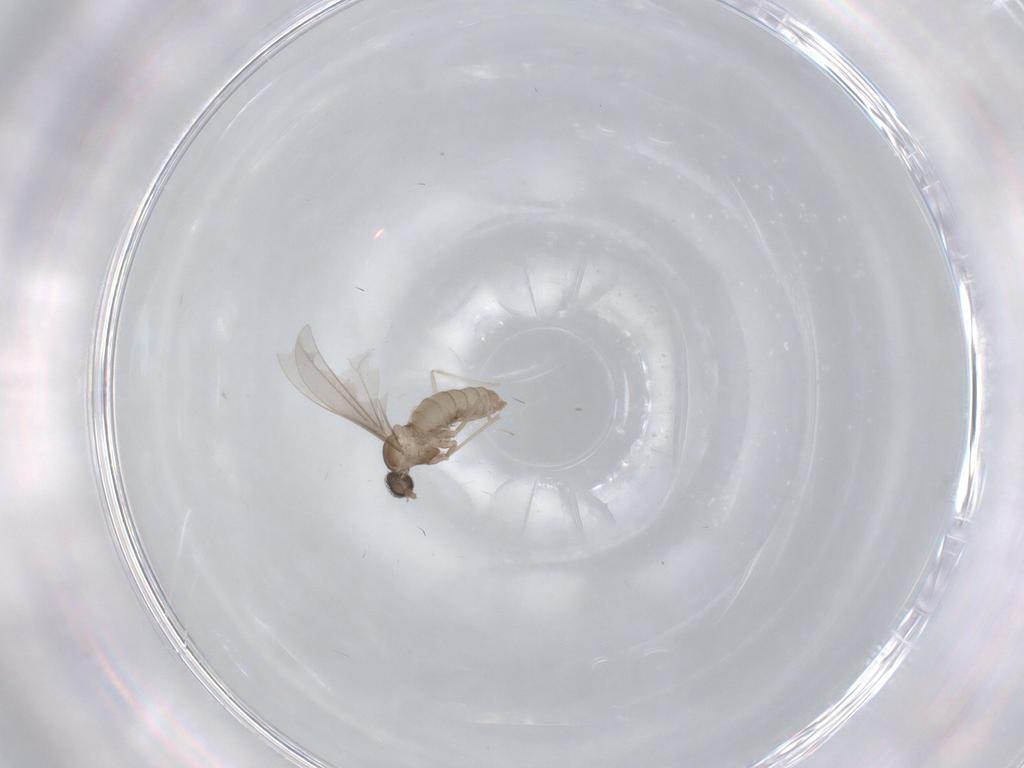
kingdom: Animalia
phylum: Arthropoda
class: Insecta
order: Diptera
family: Cecidomyiidae
